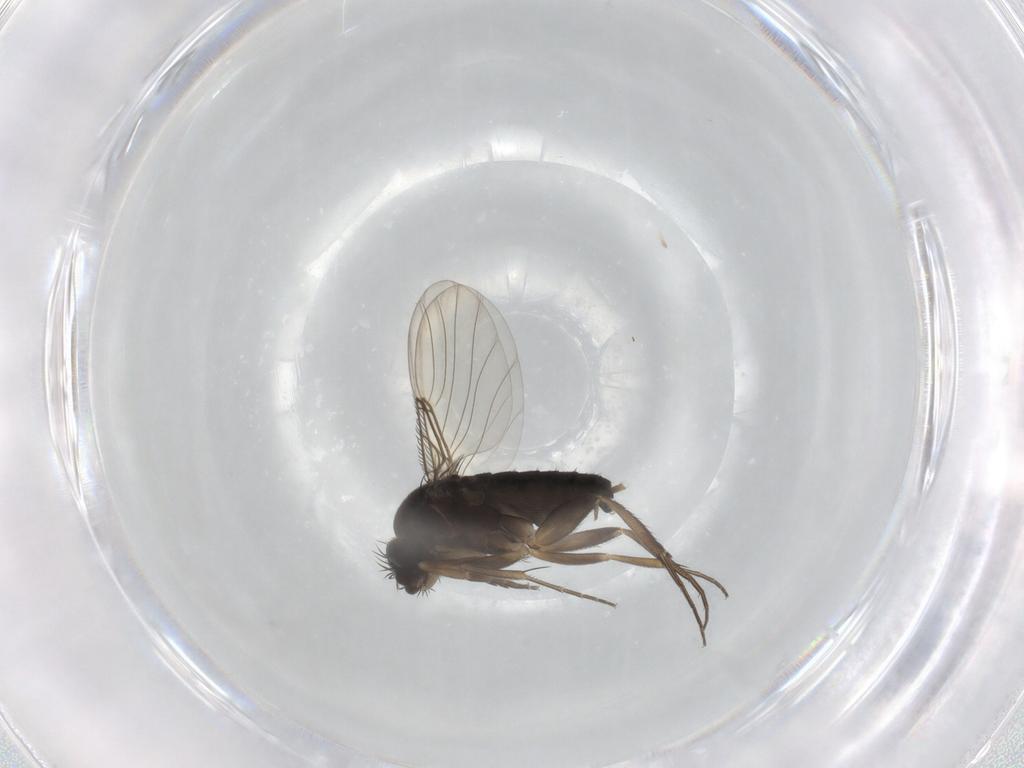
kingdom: Animalia
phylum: Arthropoda
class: Insecta
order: Diptera
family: Phoridae
